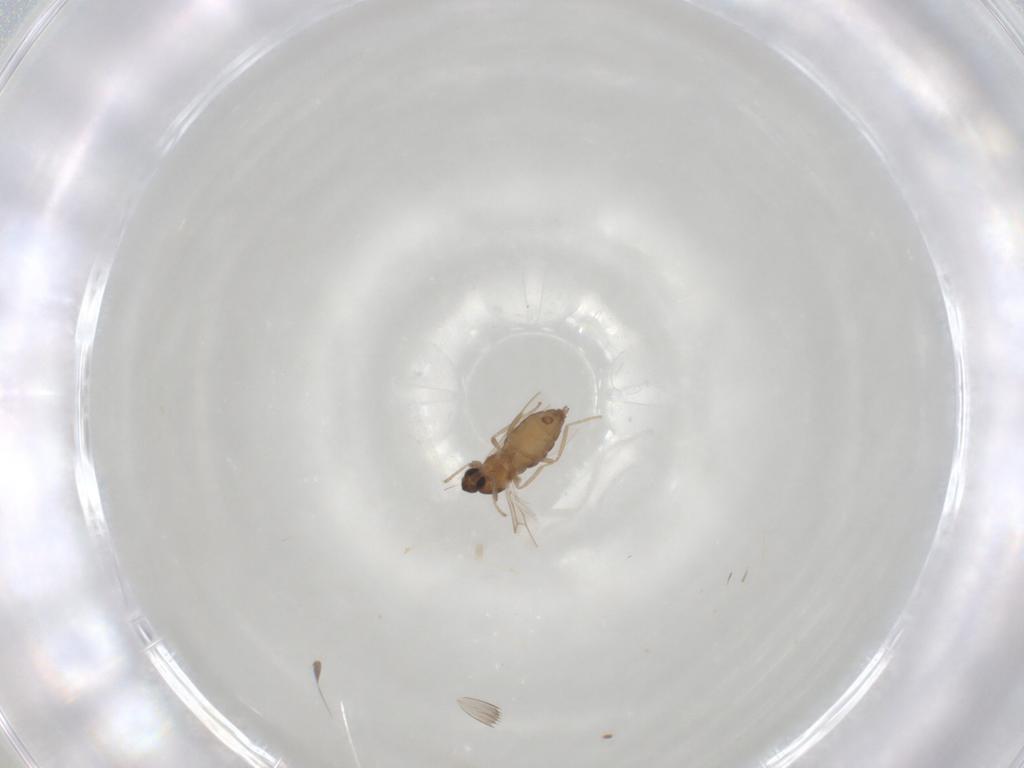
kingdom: Animalia
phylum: Arthropoda
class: Insecta
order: Diptera
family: Cecidomyiidae
